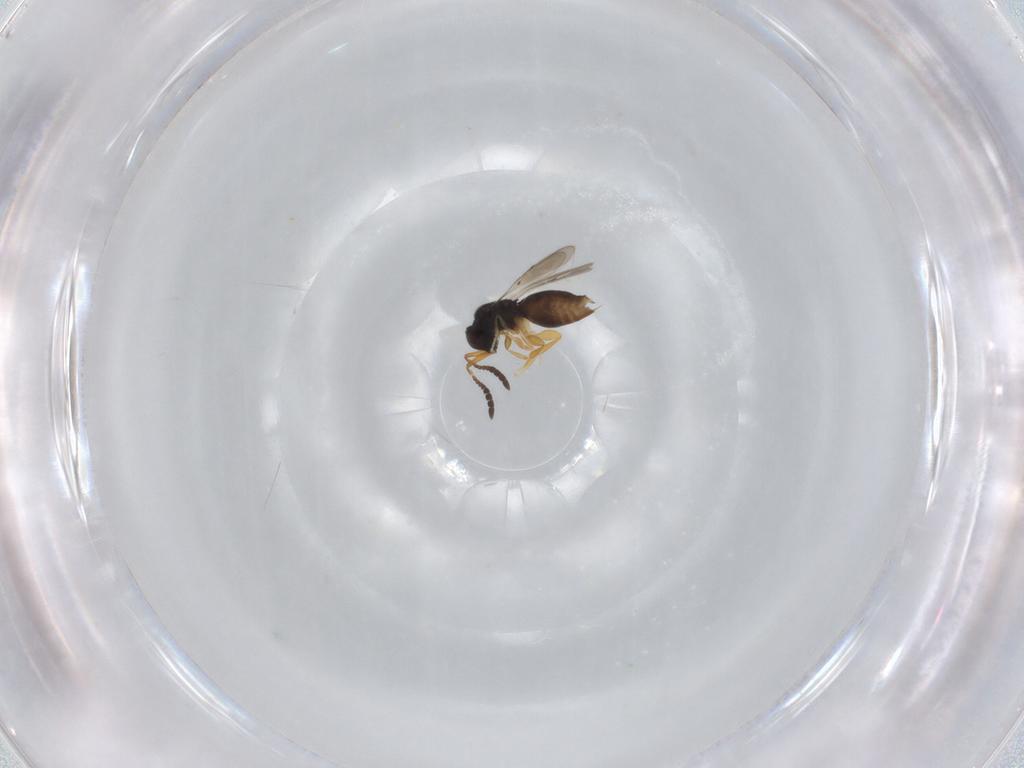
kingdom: Animalia
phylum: Arthropoda
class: Insecta
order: Hymenoptera
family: Ceraphronidae
